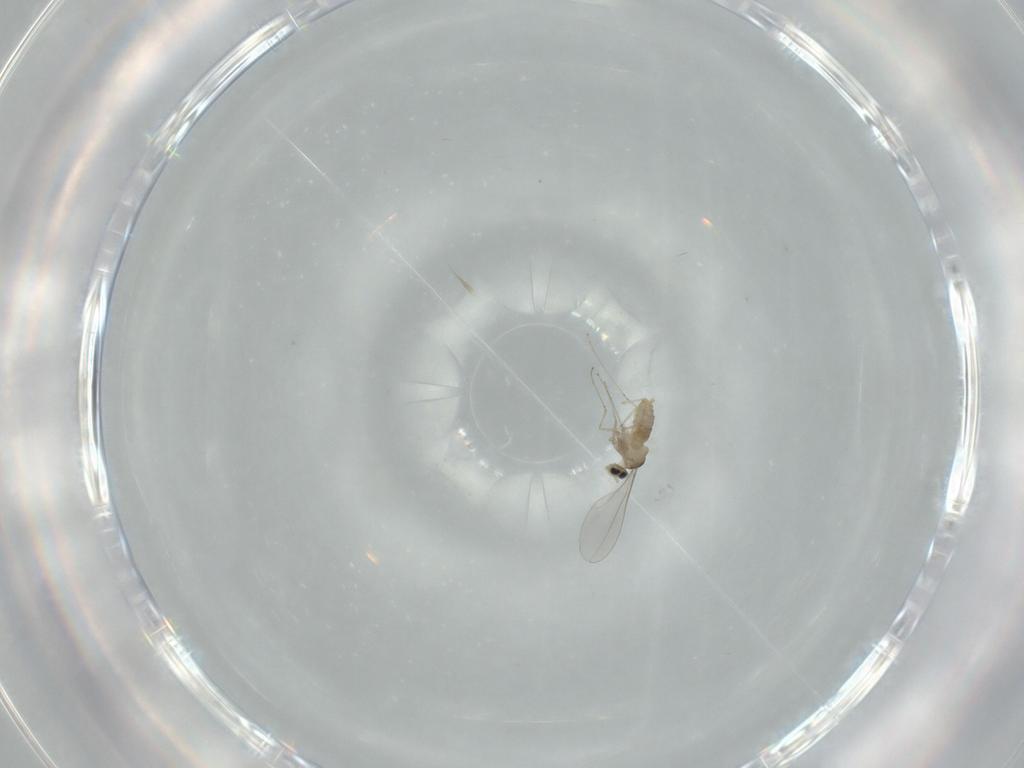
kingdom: Animalia
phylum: Arthropoda
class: Insecta
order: Diptera
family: Cecidomyiidae
